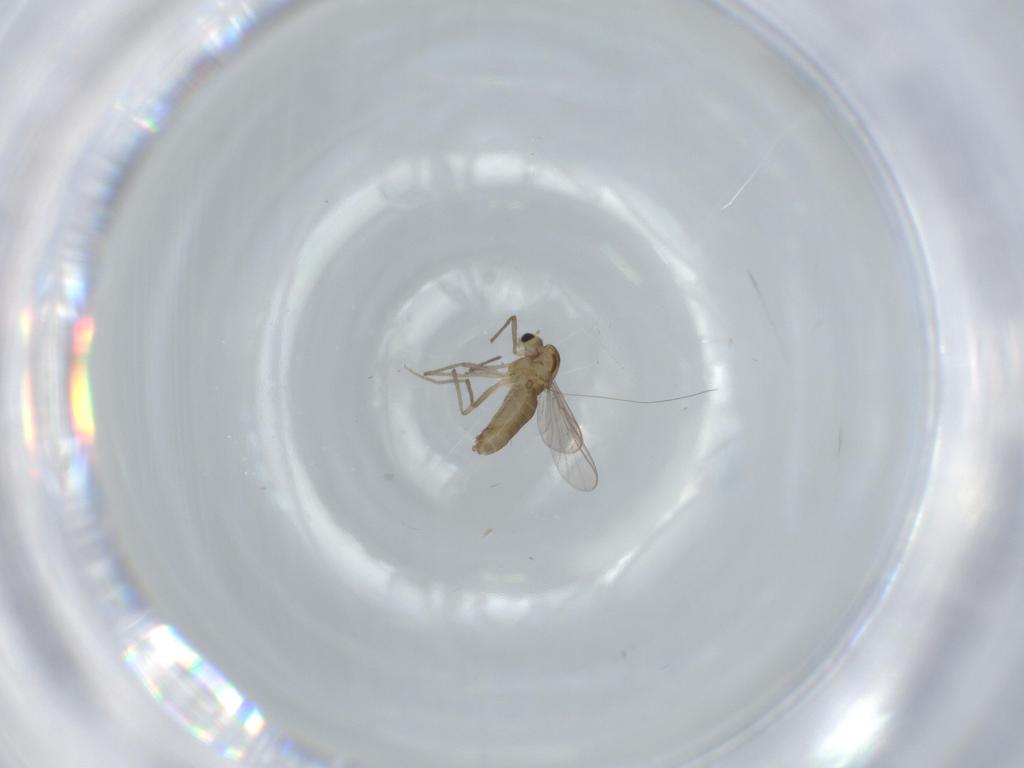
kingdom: Animalia
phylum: Arthropoda
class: Insecta
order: Diptera
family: Chironomidae
